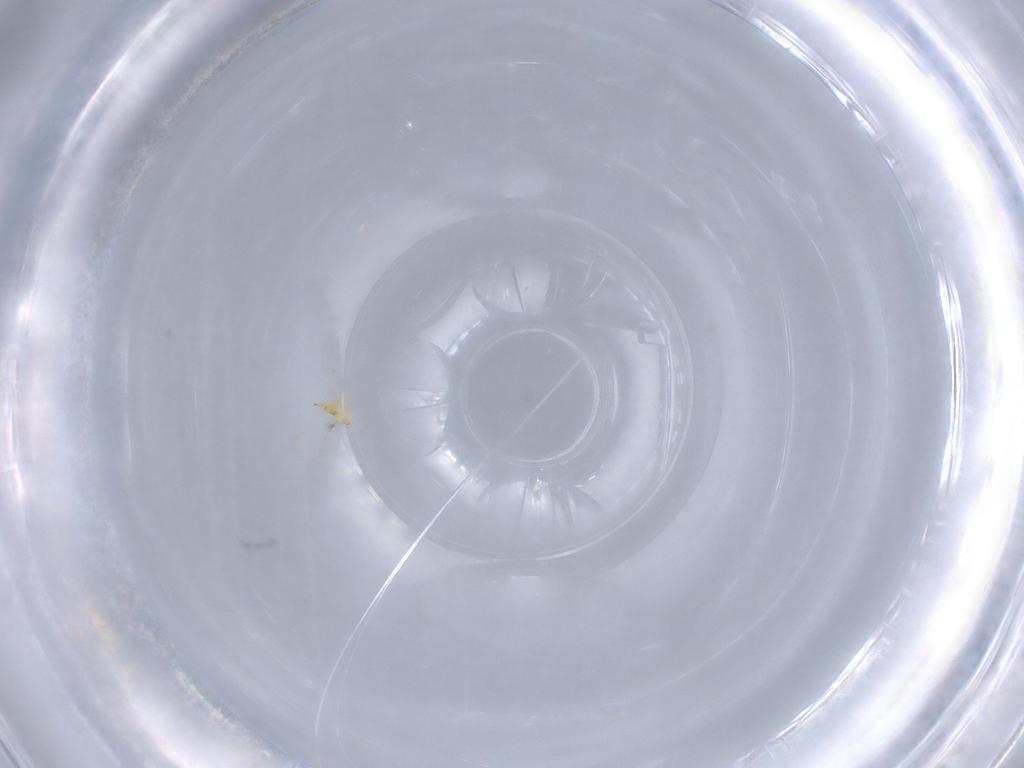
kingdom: Animalia
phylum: Arthropoda
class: Insecta
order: Hymenoptera
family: Mymaridae
